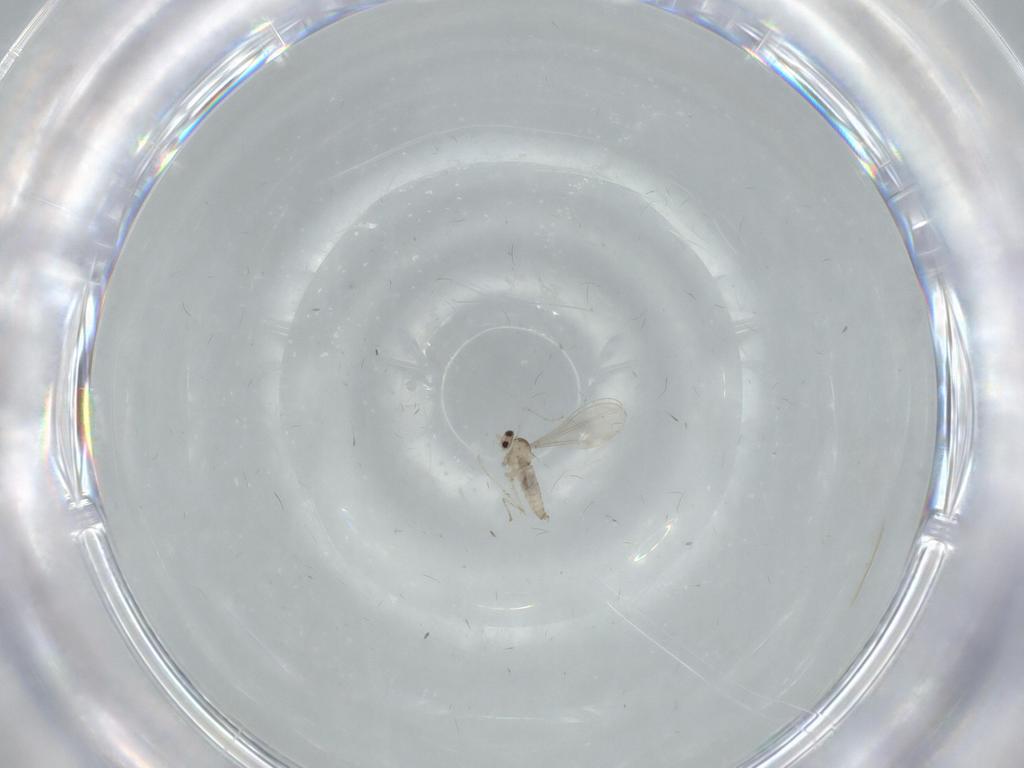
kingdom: Animalia
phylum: Arthropoda
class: Insecta
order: Diptera
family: Cecidomyiidae
